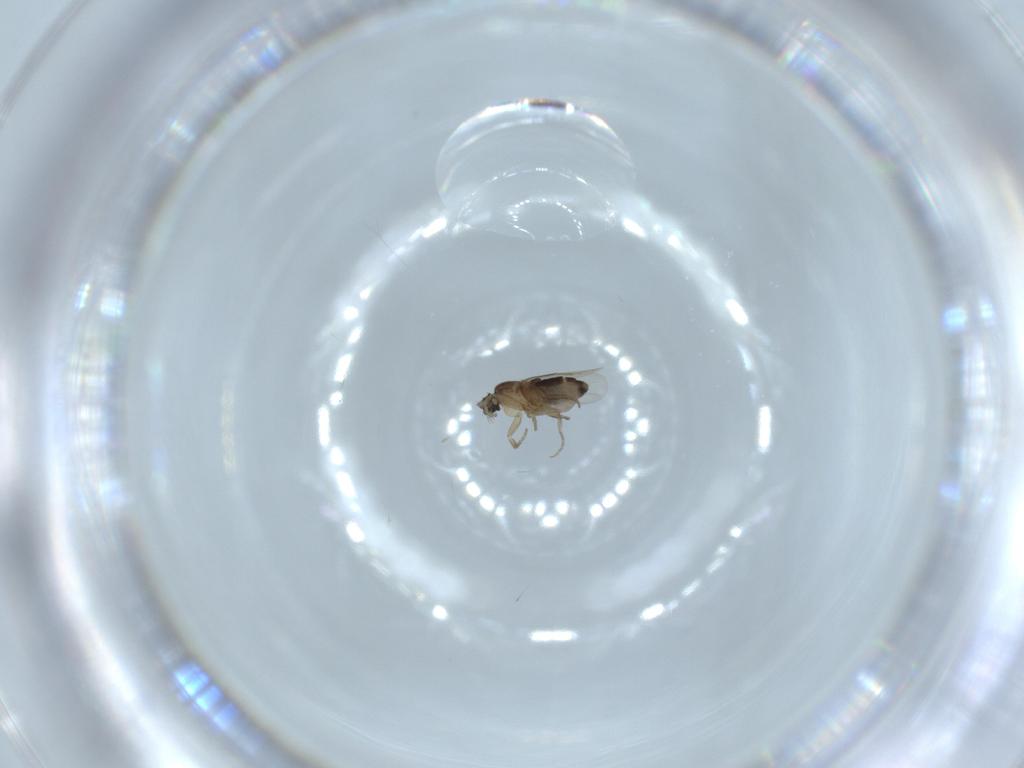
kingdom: Animalia
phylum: Arthropoda
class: Insecta
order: Diptera
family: Phoridae
